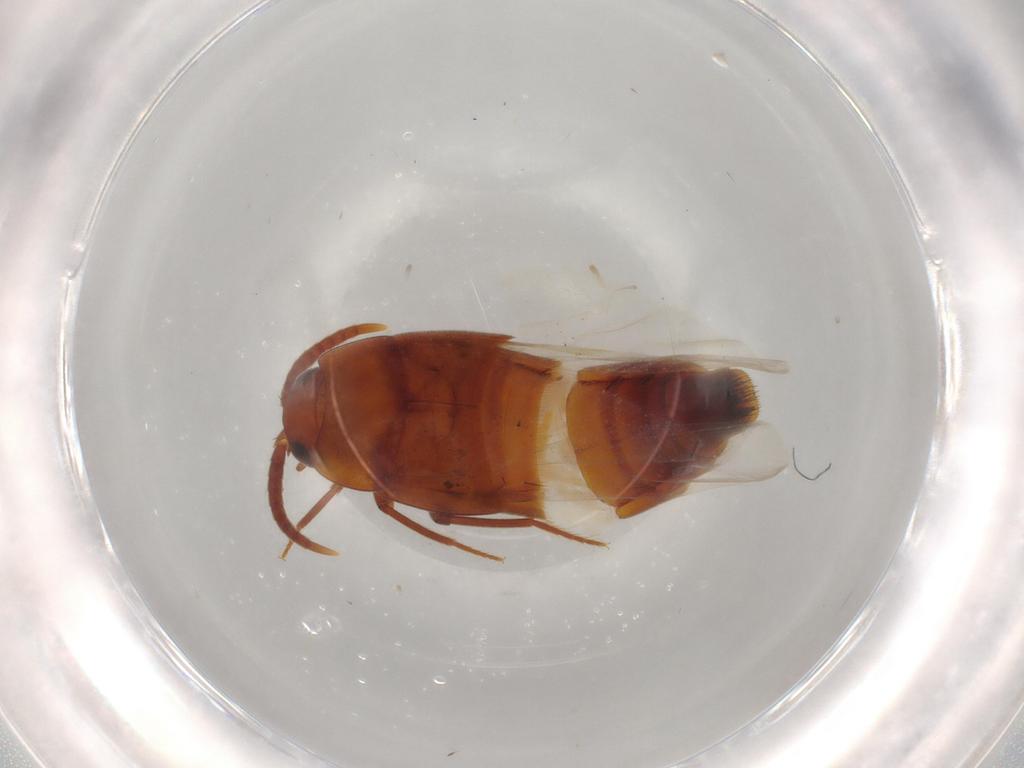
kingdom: Animalia
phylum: Arthropoda
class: Insecta
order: Coleoptera
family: Staphylinidae
